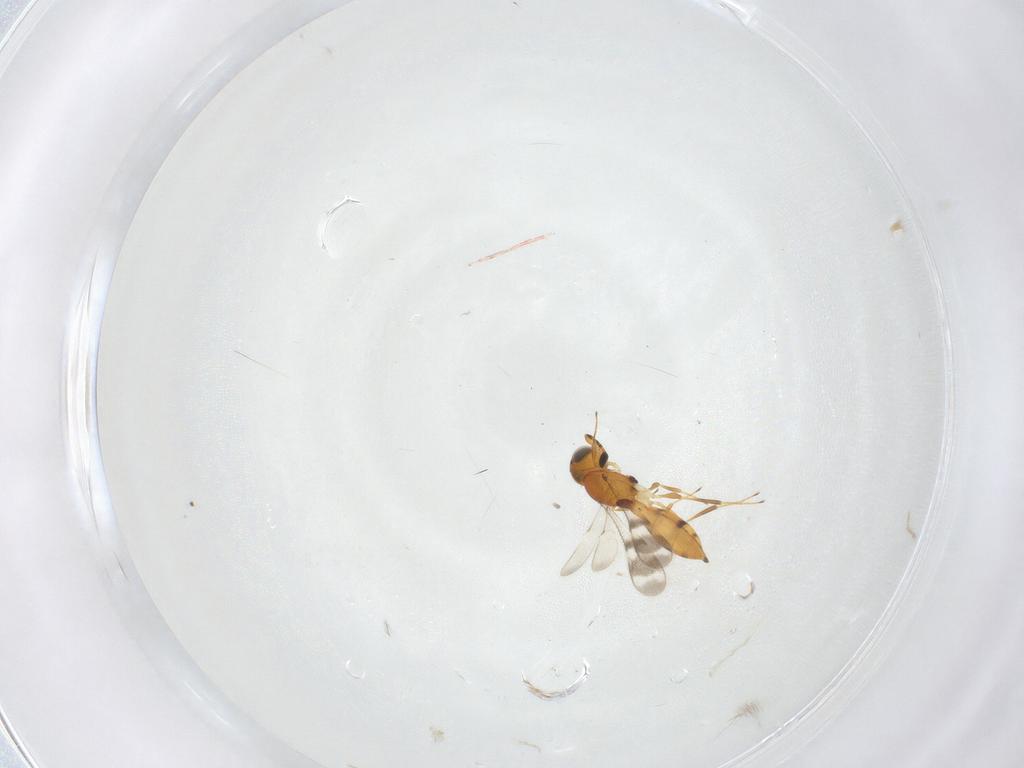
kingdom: Animalia
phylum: Arthropoda
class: Insecta
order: Hymenoptera
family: Scelionidae
